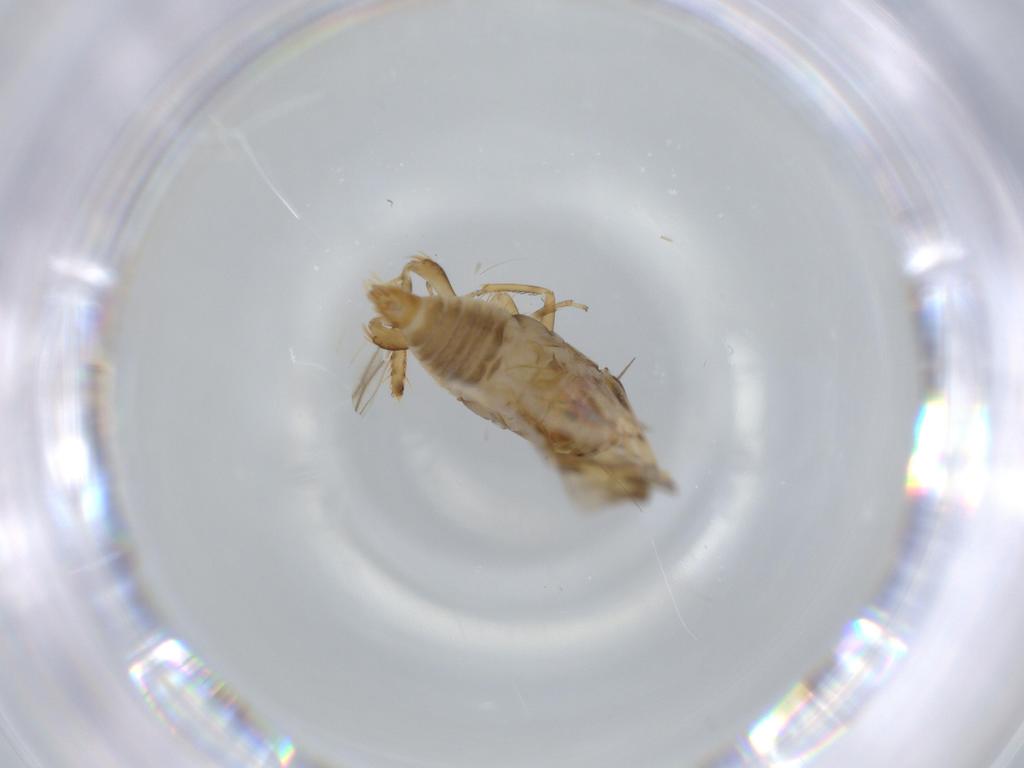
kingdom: Animalia
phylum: Arthropoda
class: Insecta
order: Hemiptera
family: Cicadellidae
